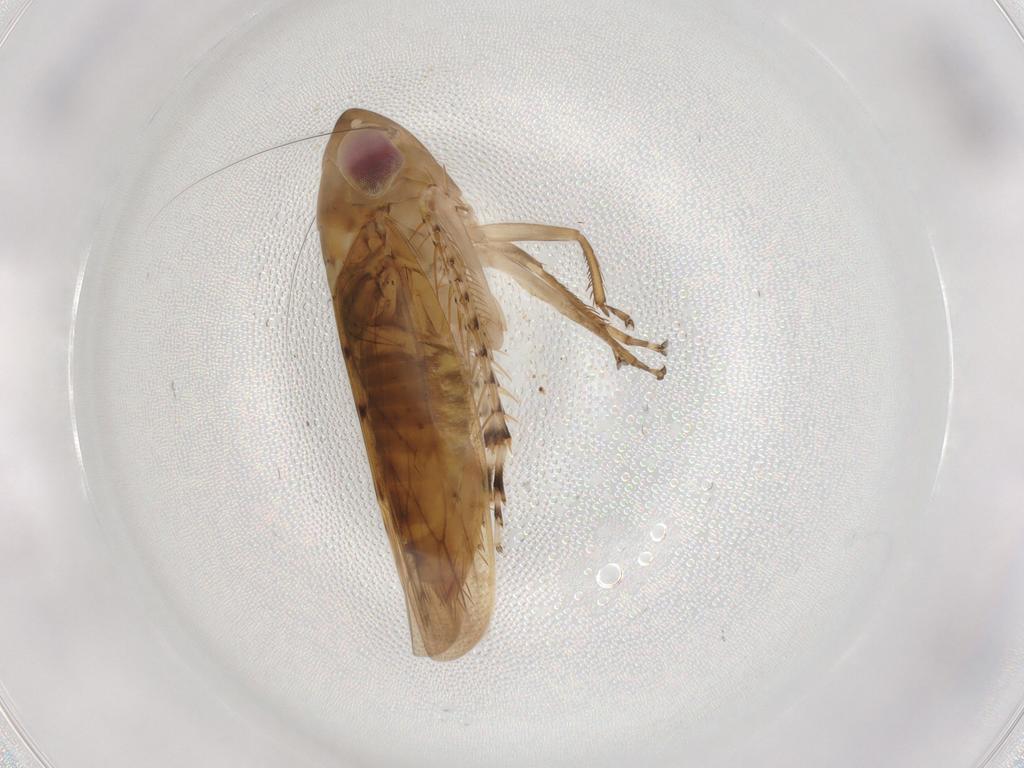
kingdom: Animalia
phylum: Arthropoda
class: Insecta
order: Hemiptera
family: Cicadellidae
